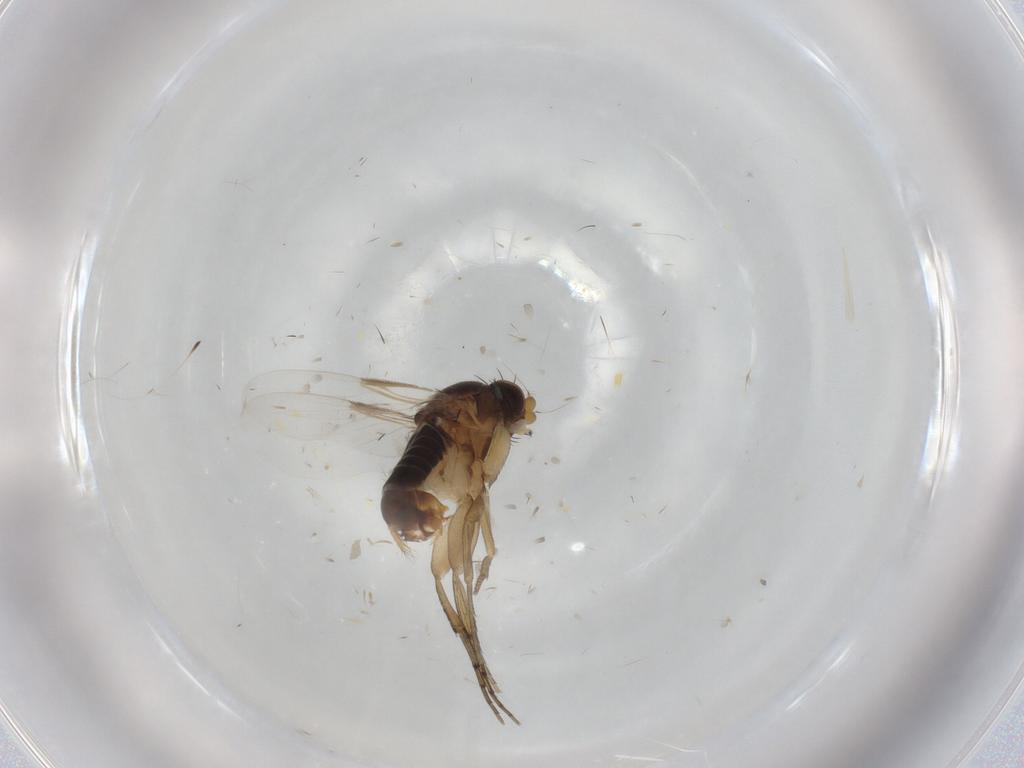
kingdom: Animalia
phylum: Arthropoda
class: Insecta
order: Diptera
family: Phoridae
